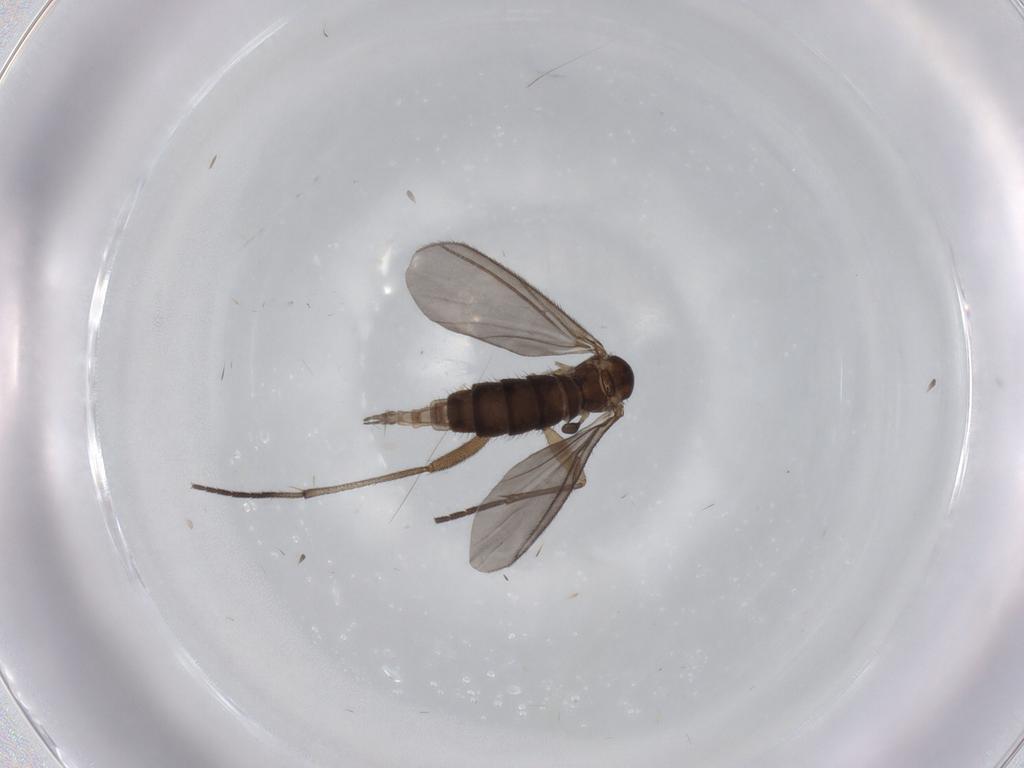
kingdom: Animalia
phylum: Arthropoda
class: Insecta
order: Diptera
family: Sciaridae
